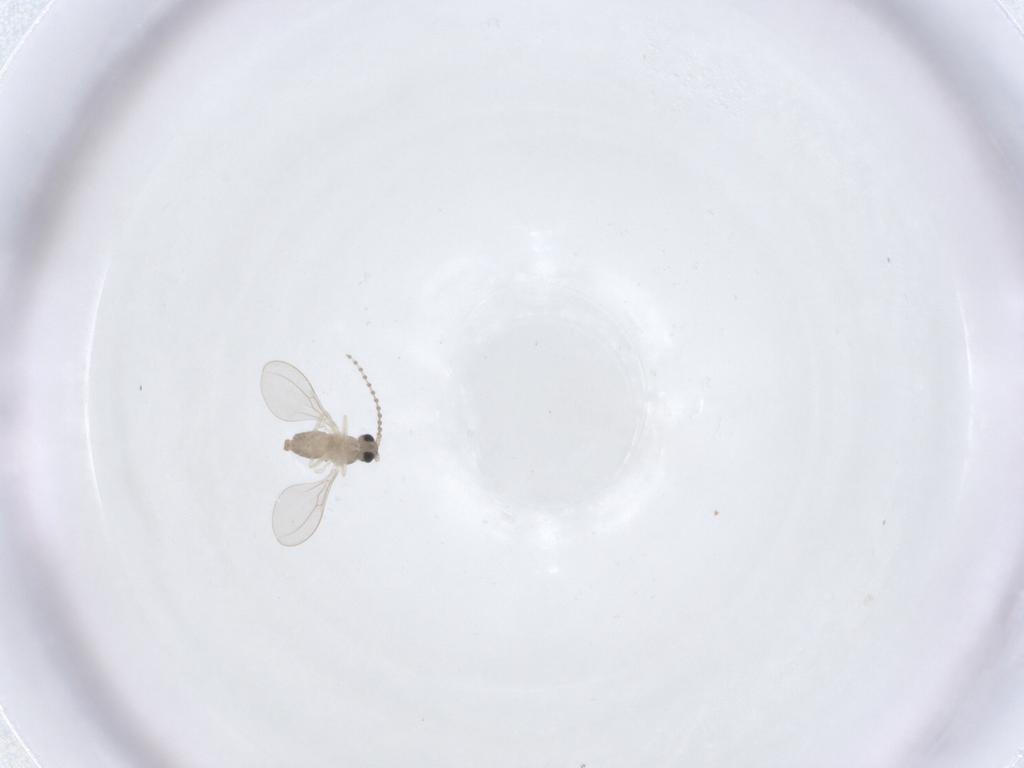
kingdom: Animalia
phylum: Arthropoda
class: Insecta
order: Diptera
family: Cecidomyiidae
